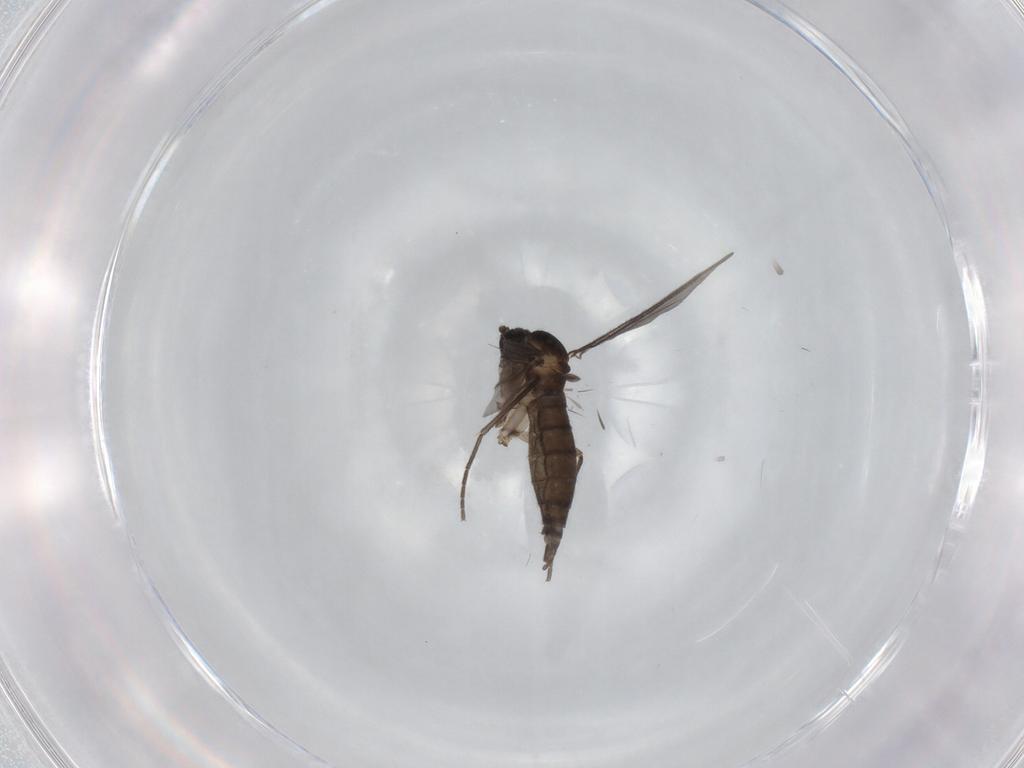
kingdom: Animalia
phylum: Arthropoda
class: Insecta
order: Diptera
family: Sciaridae
